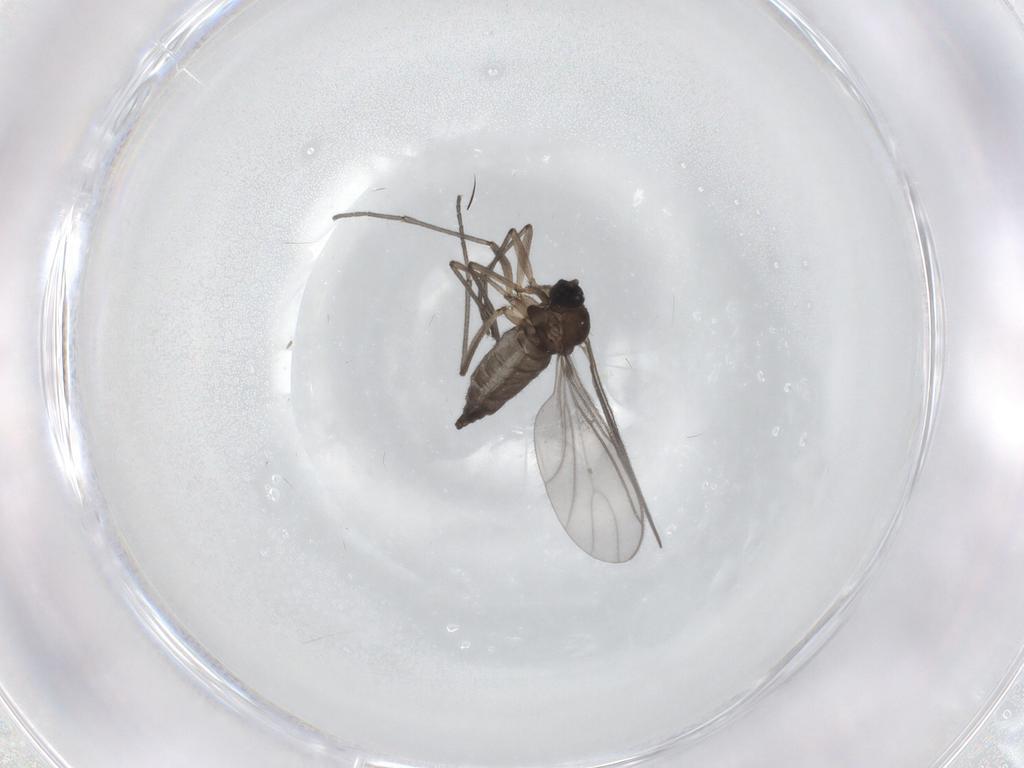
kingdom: Animalia
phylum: Arthropoda
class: Insecta
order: Diptera
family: Sciaridae
